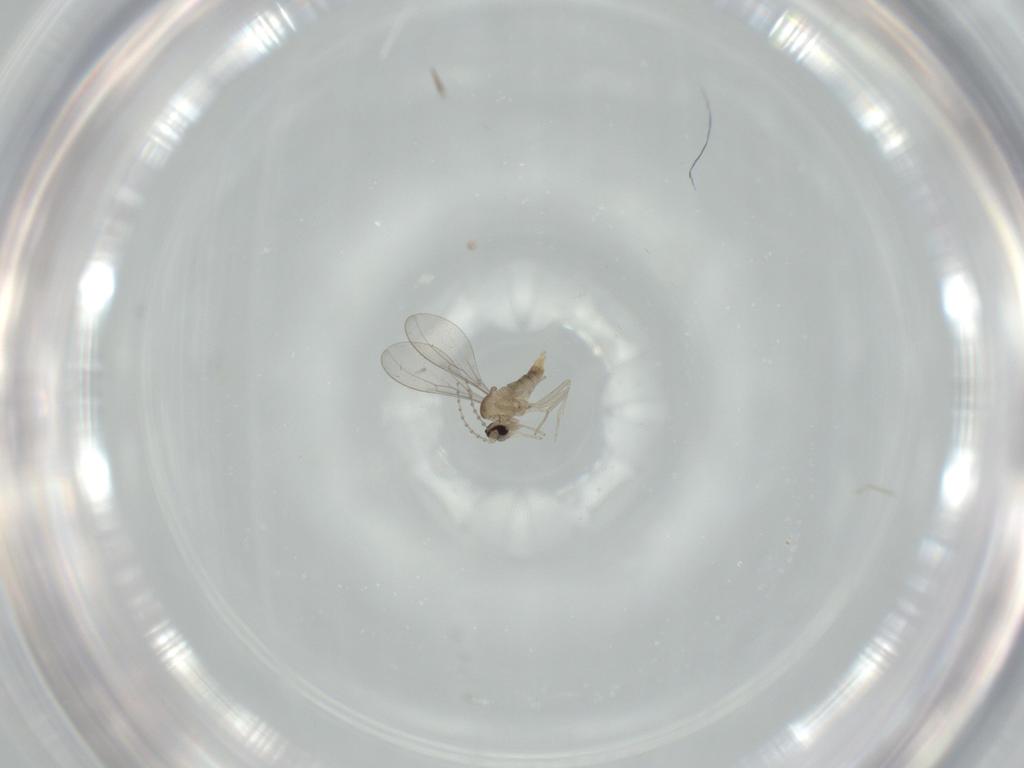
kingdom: Animalia
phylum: Arthropoda
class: Insecta
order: Diptera
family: Cecidomyiidae
